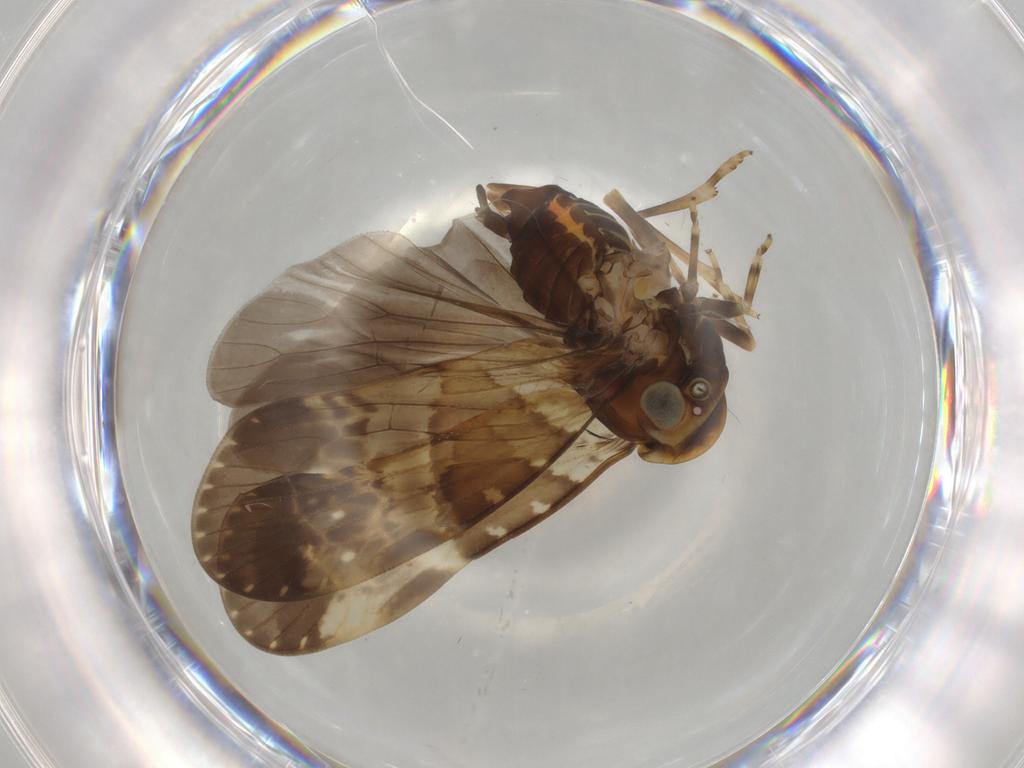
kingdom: Animalia
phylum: Arthropoda
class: Insecta
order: Hemiptera
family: Cixiidae
